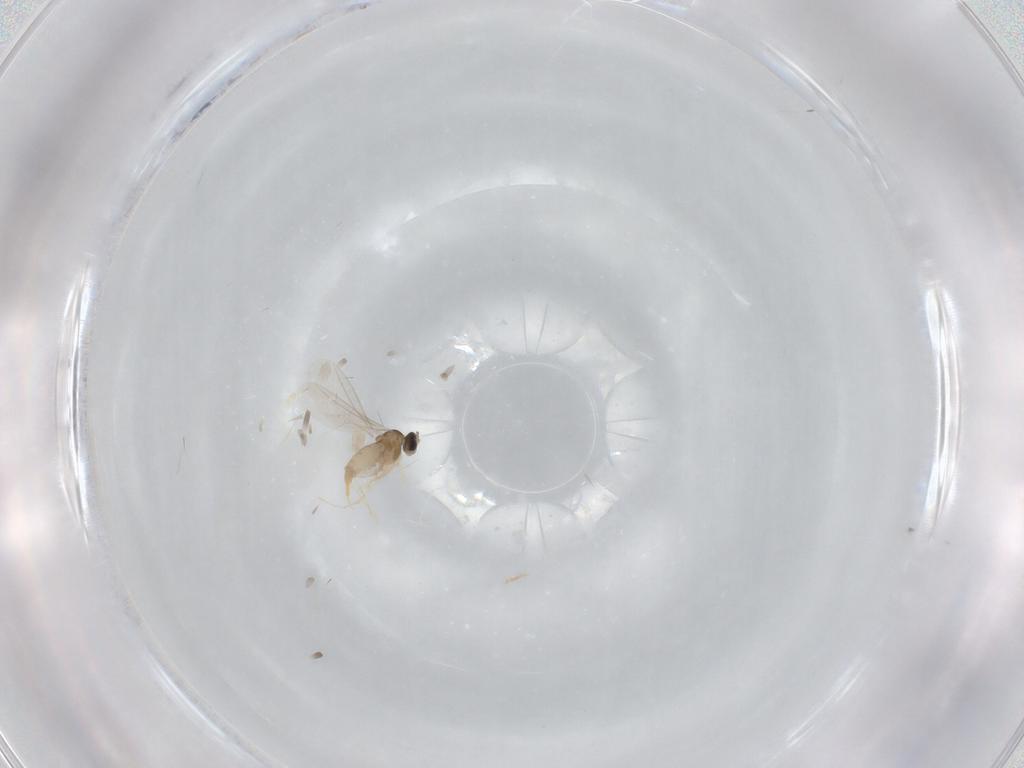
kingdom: Animalia
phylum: Arthropoda
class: Insecta
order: Diptera
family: Cecidomyiidae
